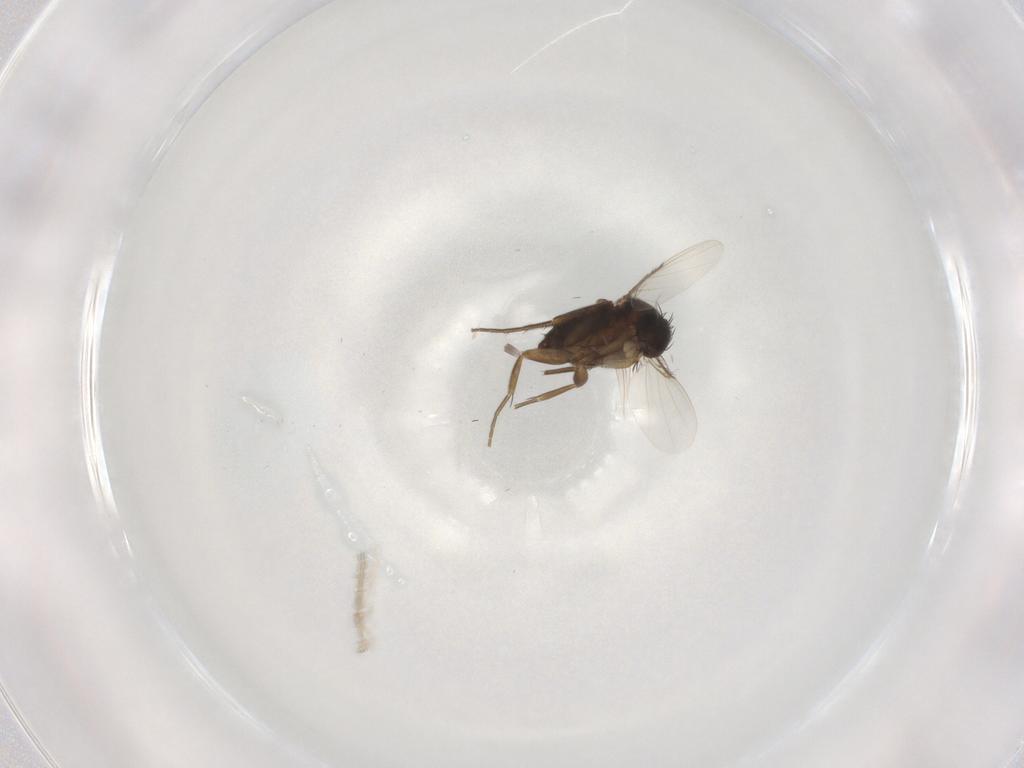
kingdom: Animalia
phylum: Arthropoda
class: Insecta
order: Diptera
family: Phoridae
